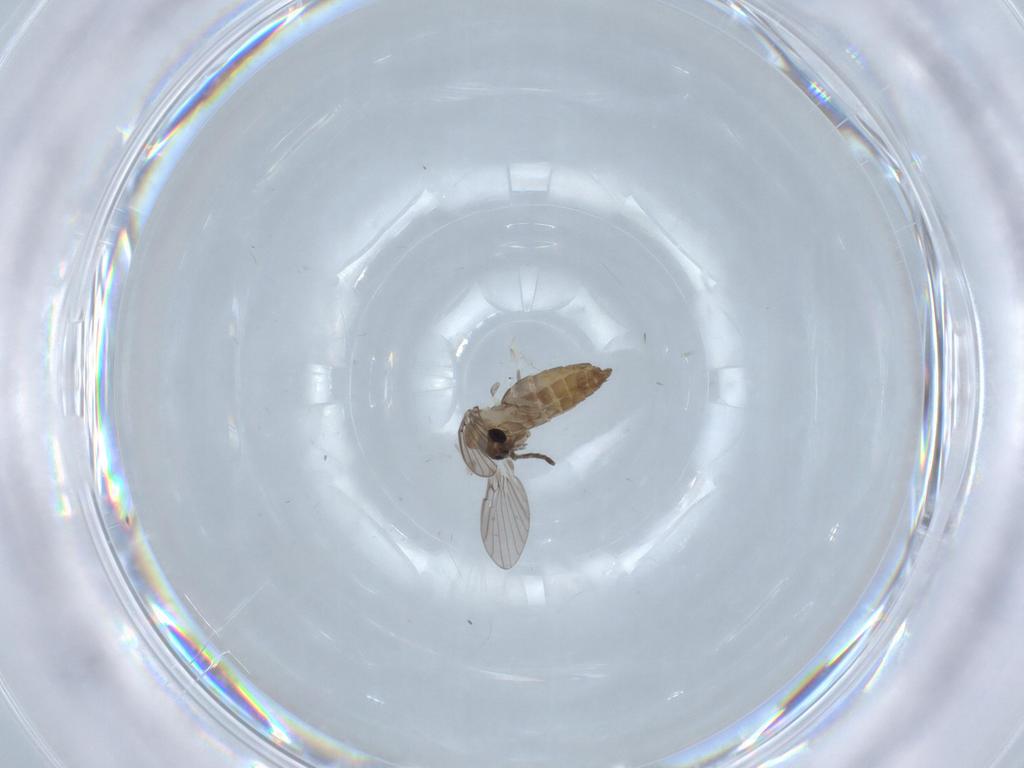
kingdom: Animalia
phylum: Arthropoda
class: Insecta
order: Diptera
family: Psychodidae
